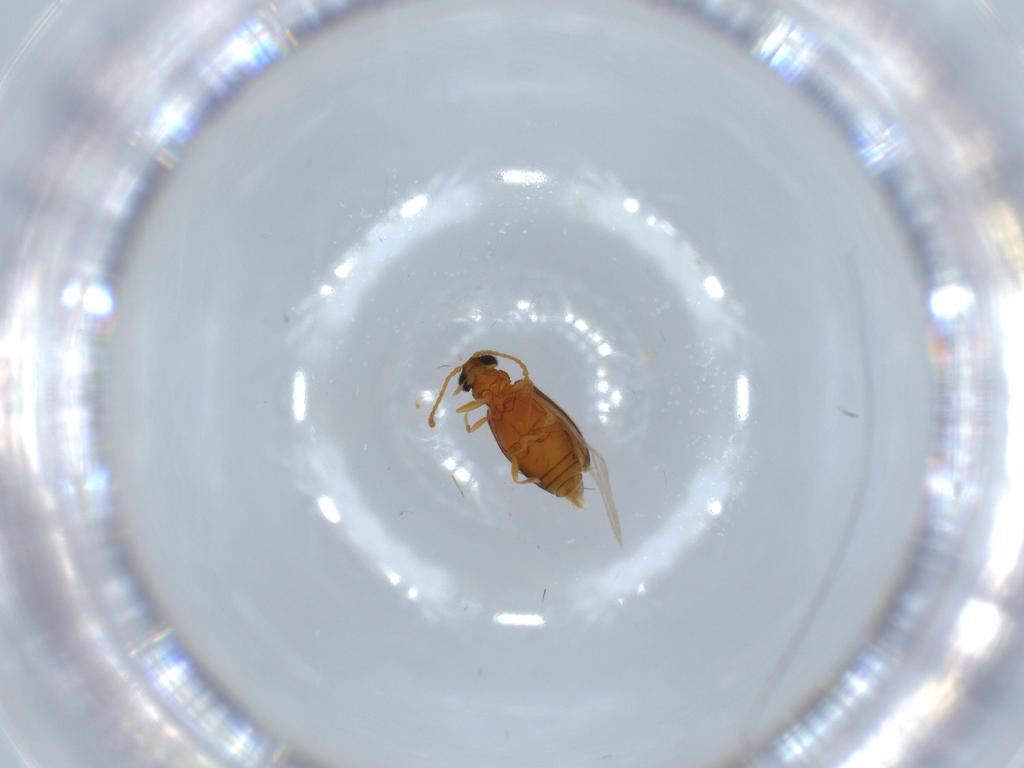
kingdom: Animalia
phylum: Arthropoda
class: Insecta
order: Coleoptera
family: Aderidae
